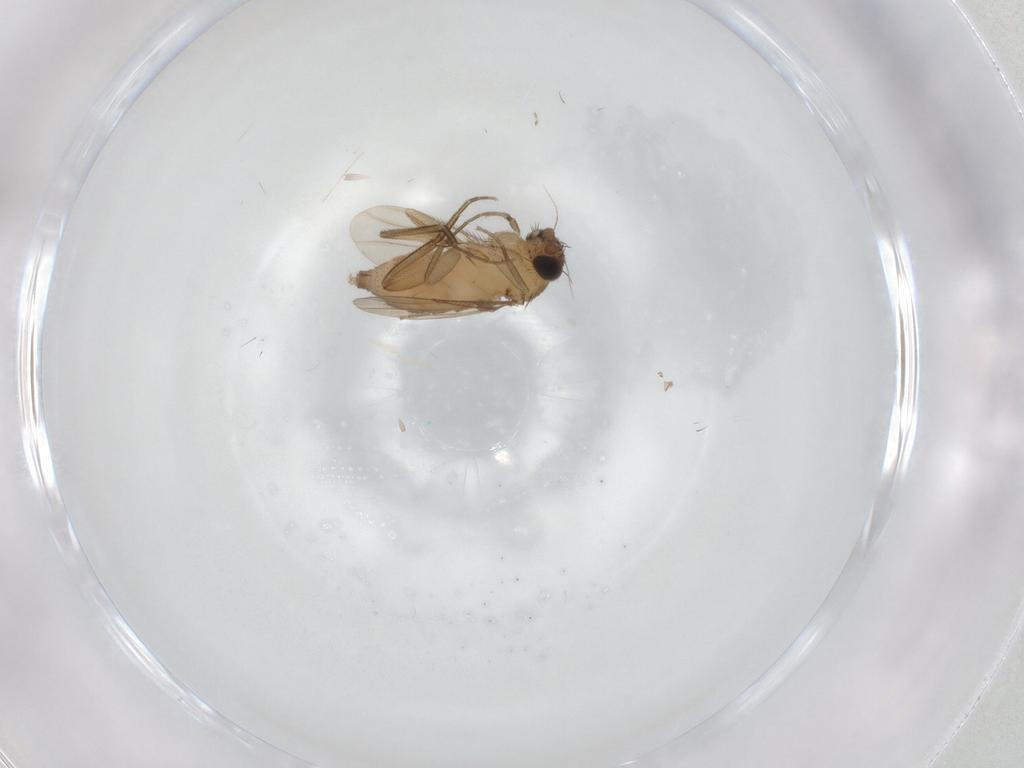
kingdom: Animalia
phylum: Arthropoda
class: Insecta
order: Diptera
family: Phoridae
